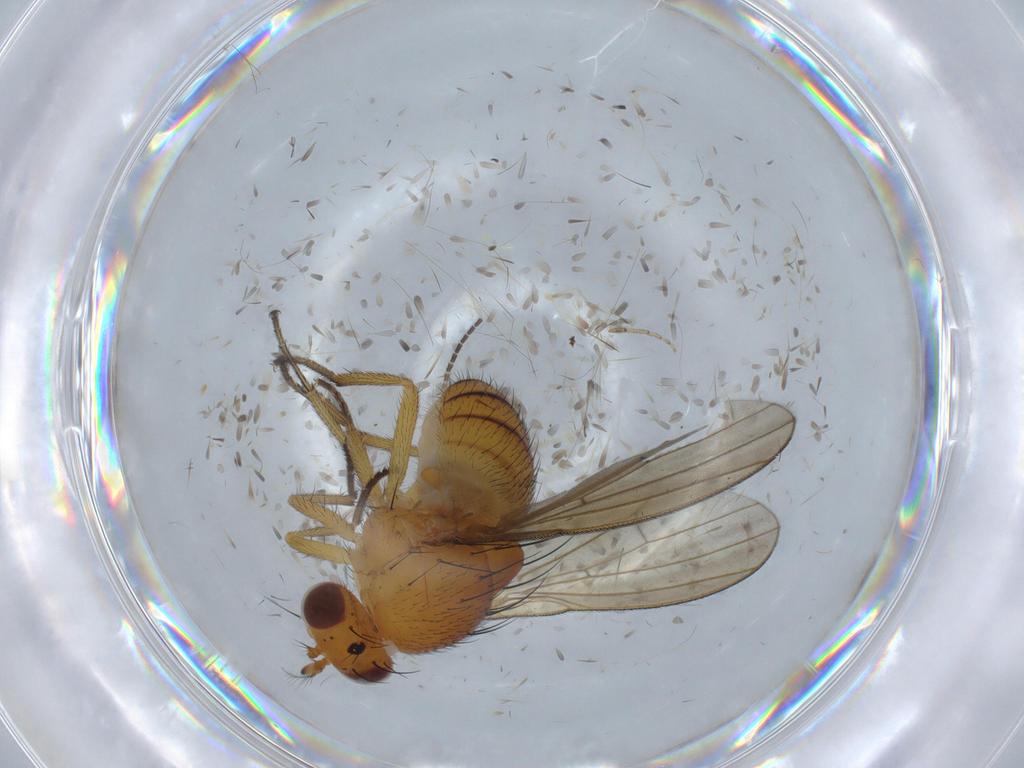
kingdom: Animalia
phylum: Arthropoda
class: Insecta
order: Diptera
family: Lauxaniidae
